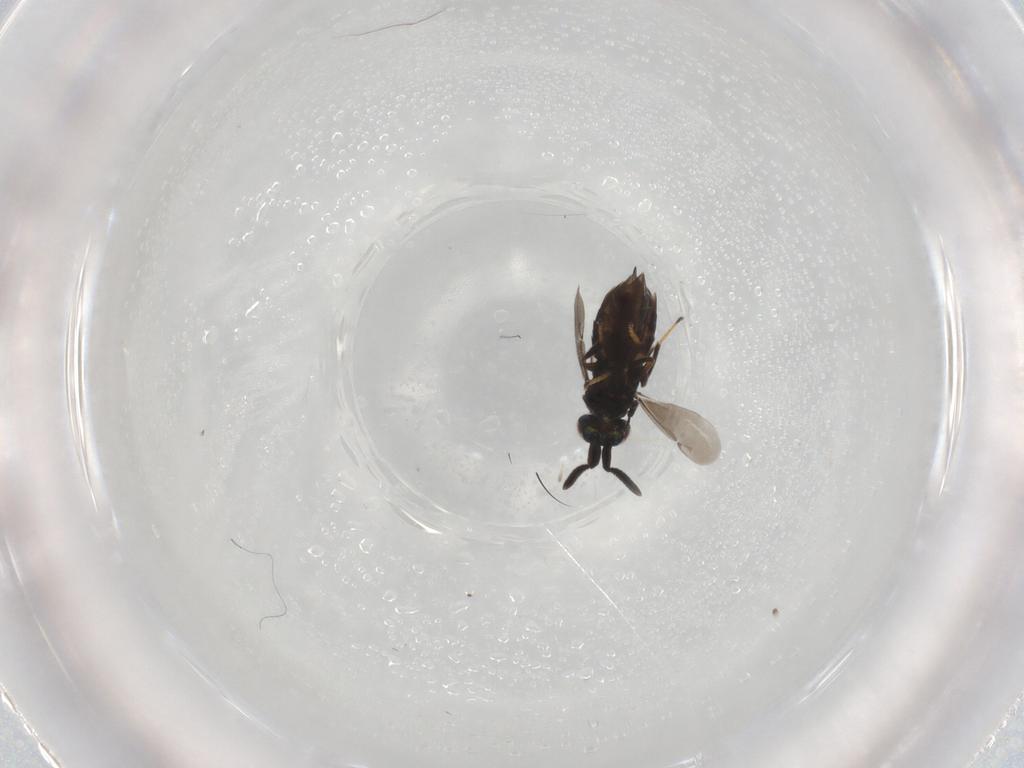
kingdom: Animalia
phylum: Arthropoda
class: Insecta
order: Hymenoptera
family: Encyrtidae
